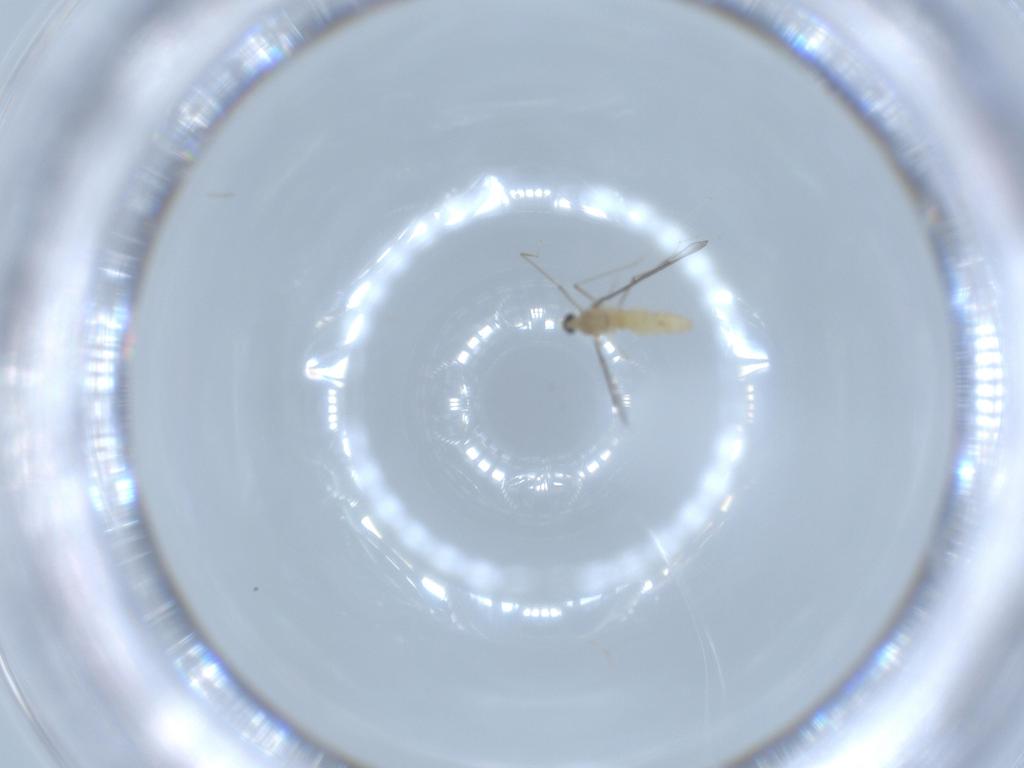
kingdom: Animalia
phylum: Arthropoda
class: Insecta
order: Diptera
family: Cecidomyiidae
